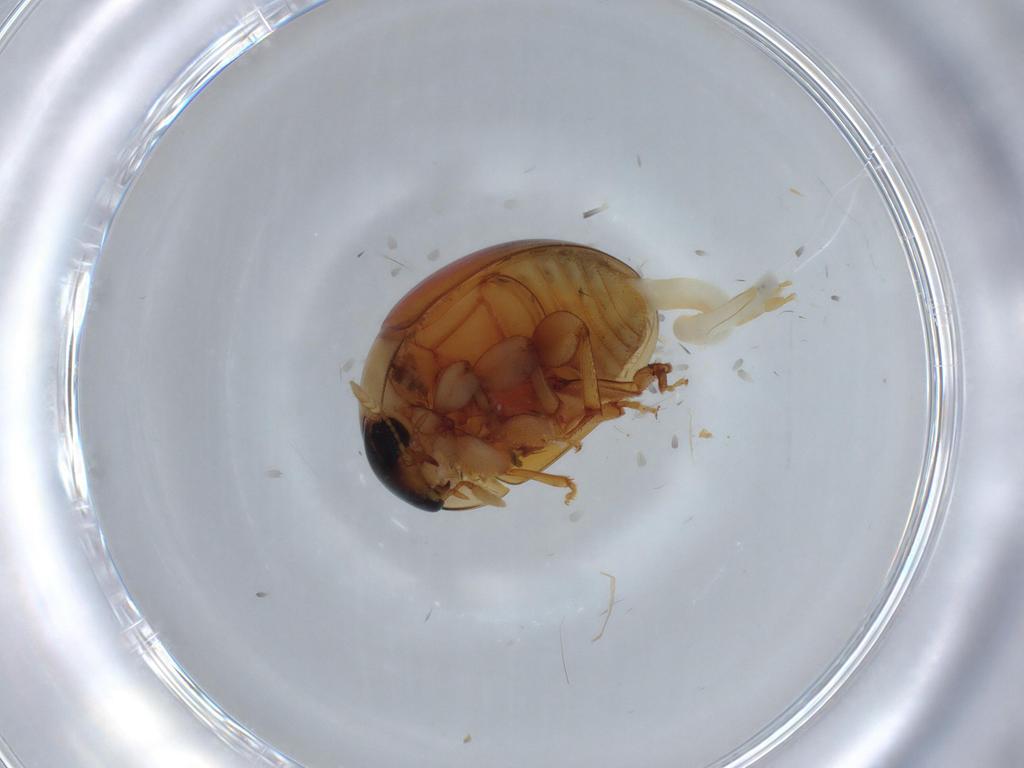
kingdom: Animalia
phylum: Arthropoda
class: Insecta
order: Coleoptera
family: Phalacridae
